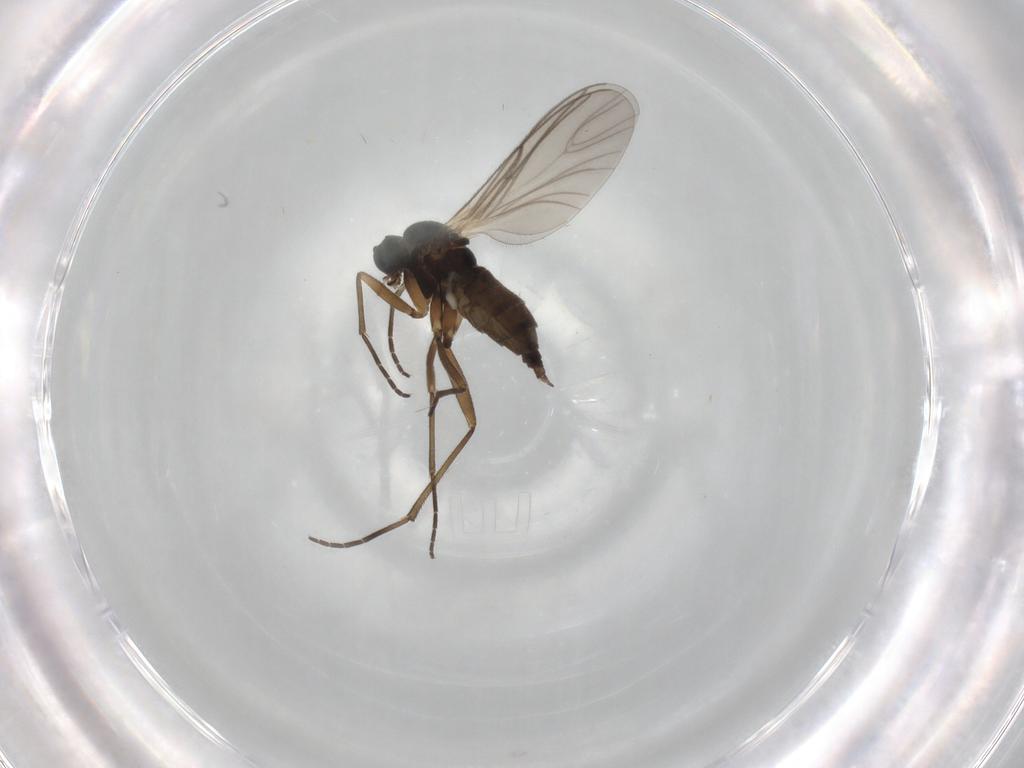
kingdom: Animalia
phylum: Arthropoda
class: Insecta
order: Diptera
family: Sciaridae
